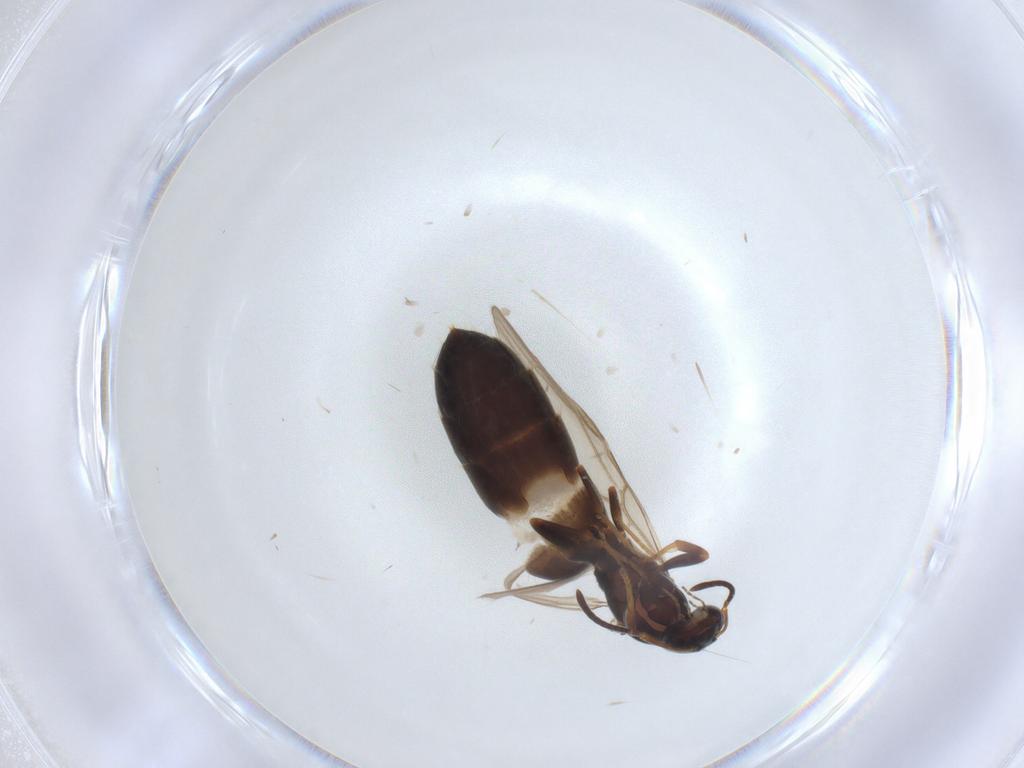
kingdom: Animalia
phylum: Arthropoda
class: Insecta
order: Hymenoptera
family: Formicidae
